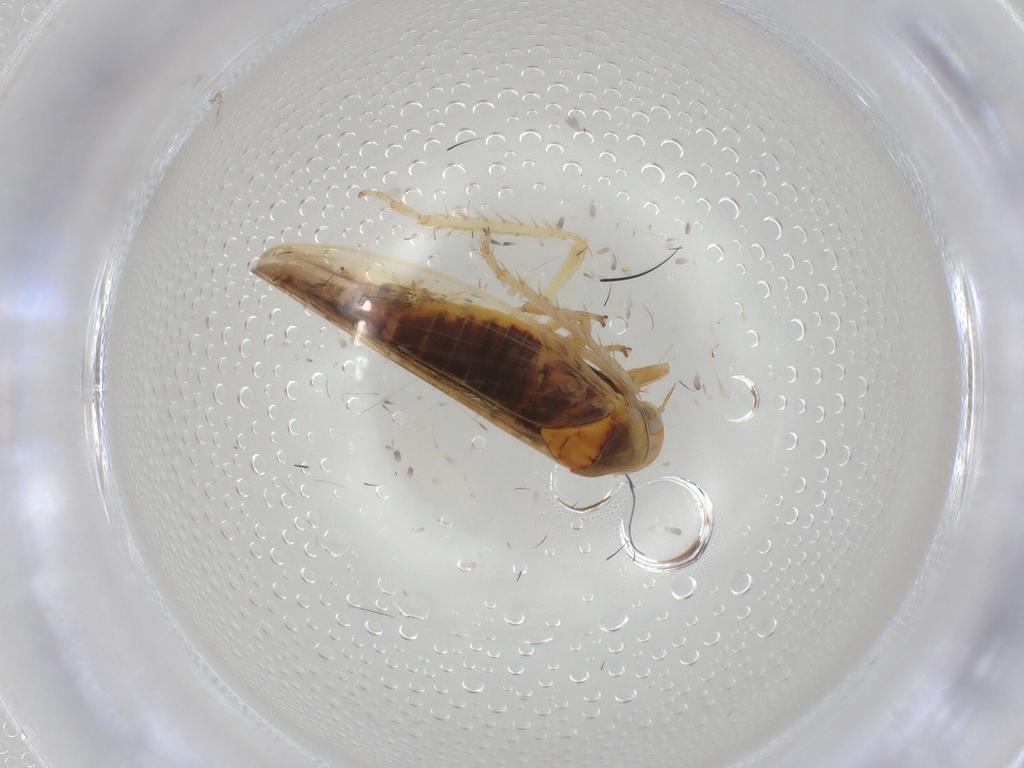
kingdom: Animalia
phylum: Arthropoda
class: Insecta
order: Hemiptera
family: Cicadellidae
